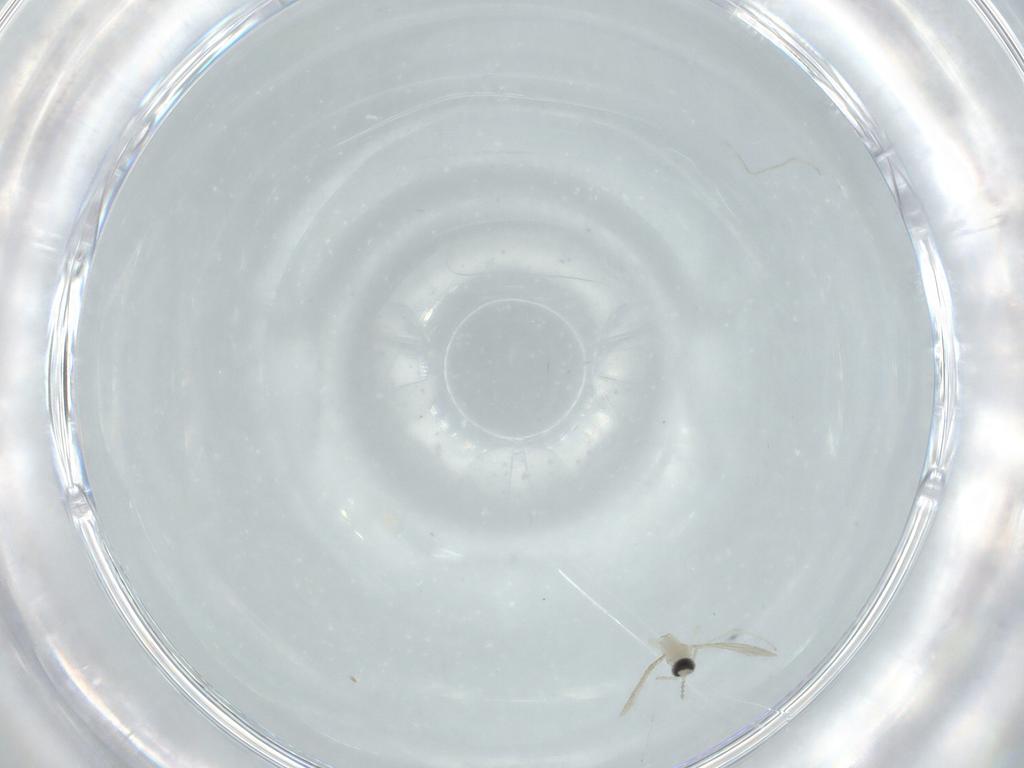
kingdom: Animalia
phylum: Arthropoda
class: Insecta
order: Diptera
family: Cecidomyiidae
